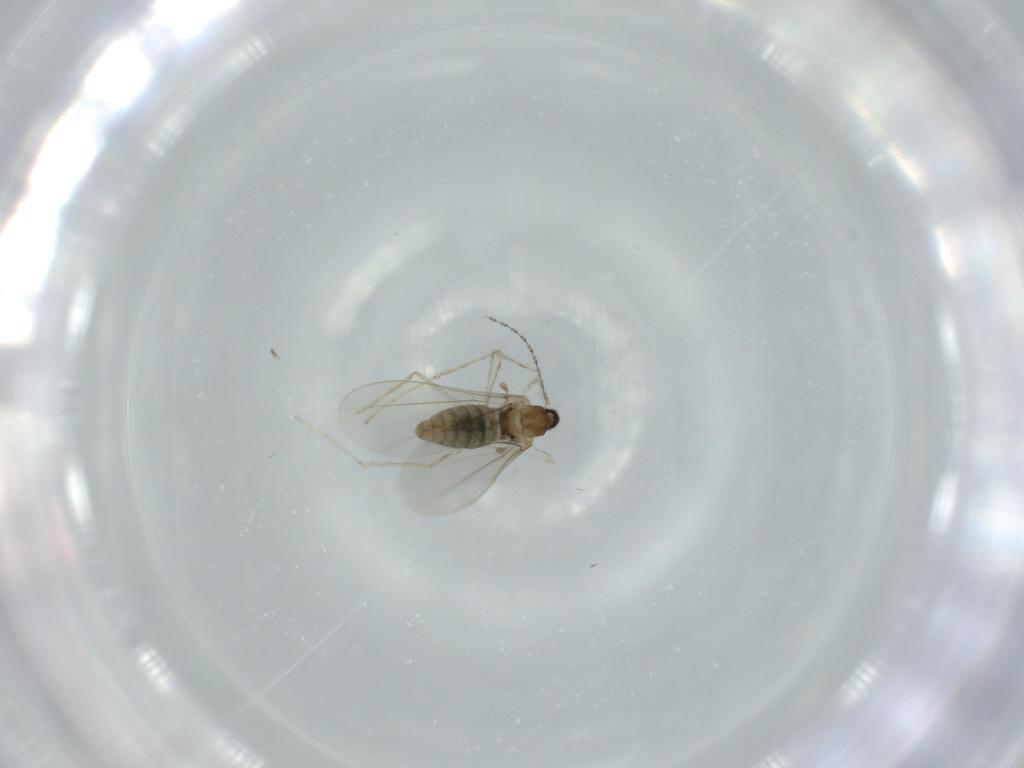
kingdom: Animalia
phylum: Arthropoda
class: Insecta
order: Diptera
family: Cecidomyiidae
